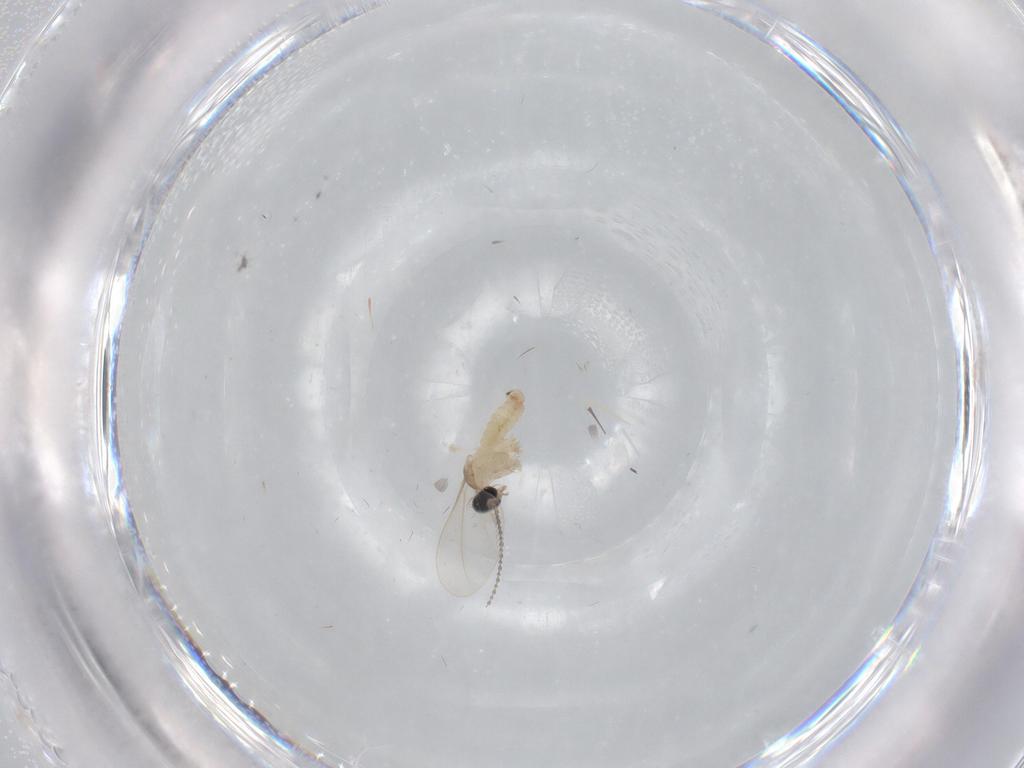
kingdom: Animalia
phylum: Arthropoda
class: Insecta
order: Diptera
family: Cecidomyiidae
